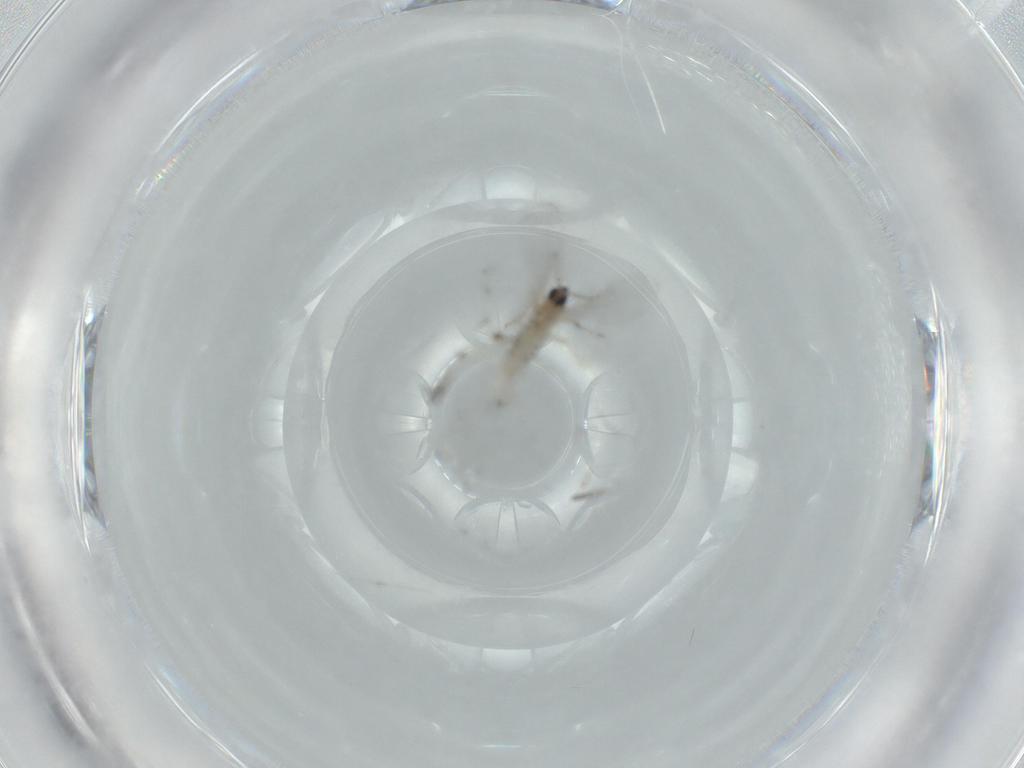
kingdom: Animalia
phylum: Arthropoda
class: Insecta
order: Diptera
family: Cecidomyiidae
